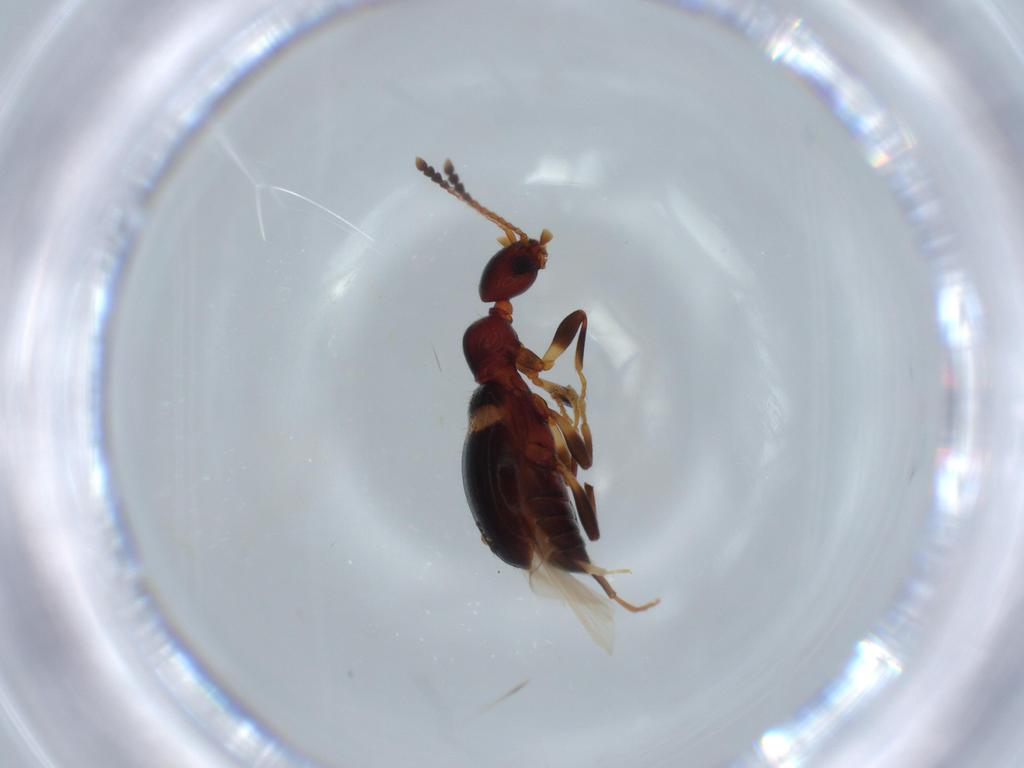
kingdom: Animalia
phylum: Arthropoda
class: Insecta
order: Coleoptera
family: Anthicidae
